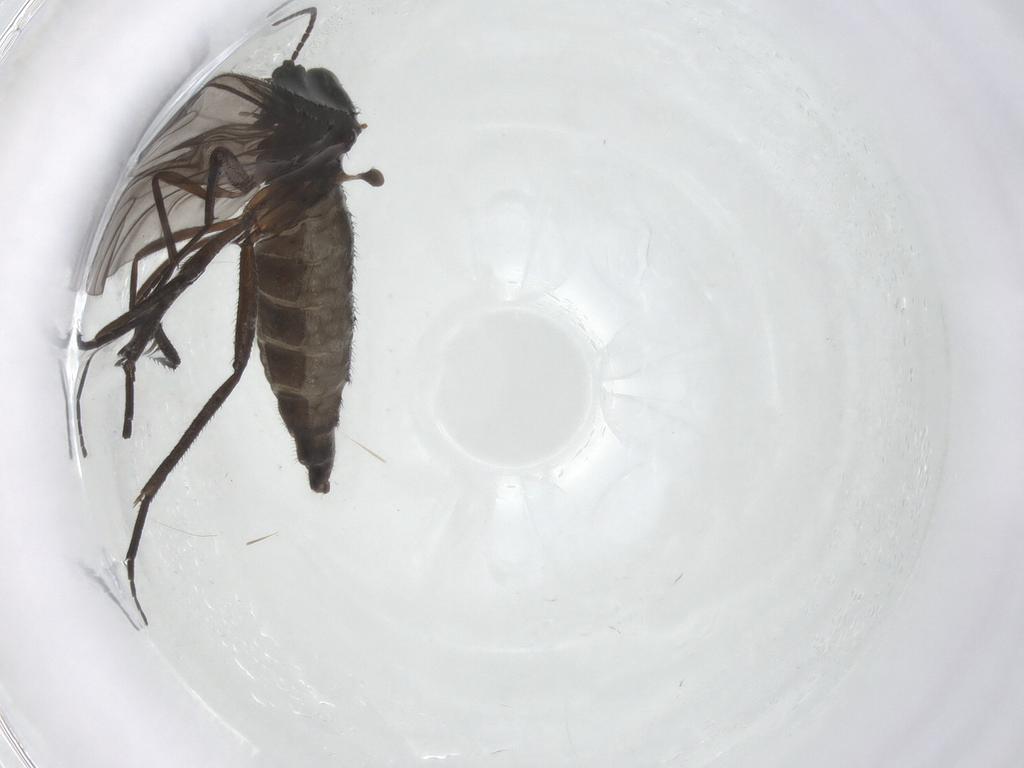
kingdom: Animalia
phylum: Arthropoda
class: Insecta
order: Diptera
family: Sciaridae
